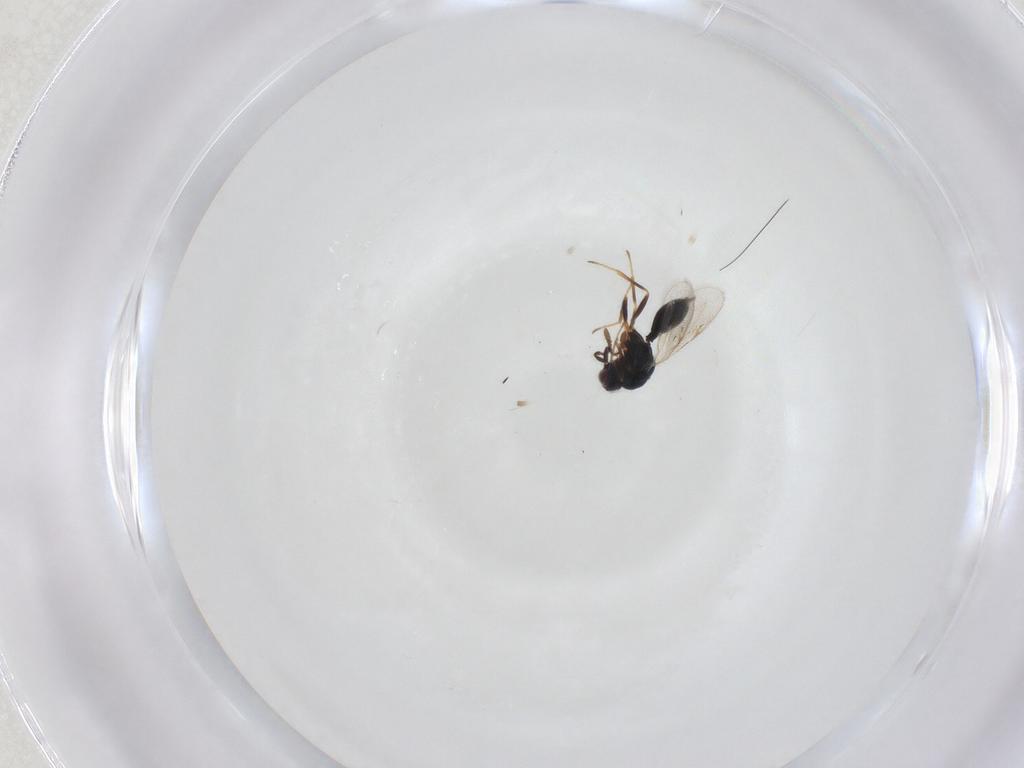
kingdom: Animalia
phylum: Arthropoda
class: Insecta
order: Hymenoptera
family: Chalcidoidea_incertae_sedis
